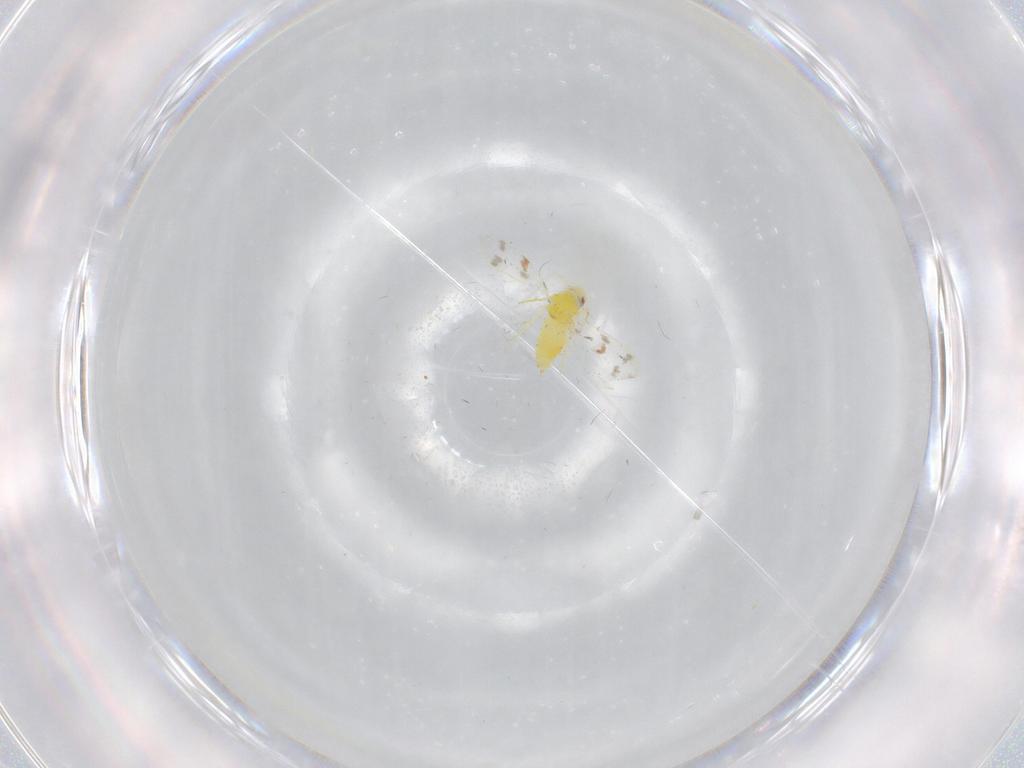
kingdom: Animalia
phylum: Arthropoda
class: Insecta
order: Hemiptera
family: Aleyrodidae
